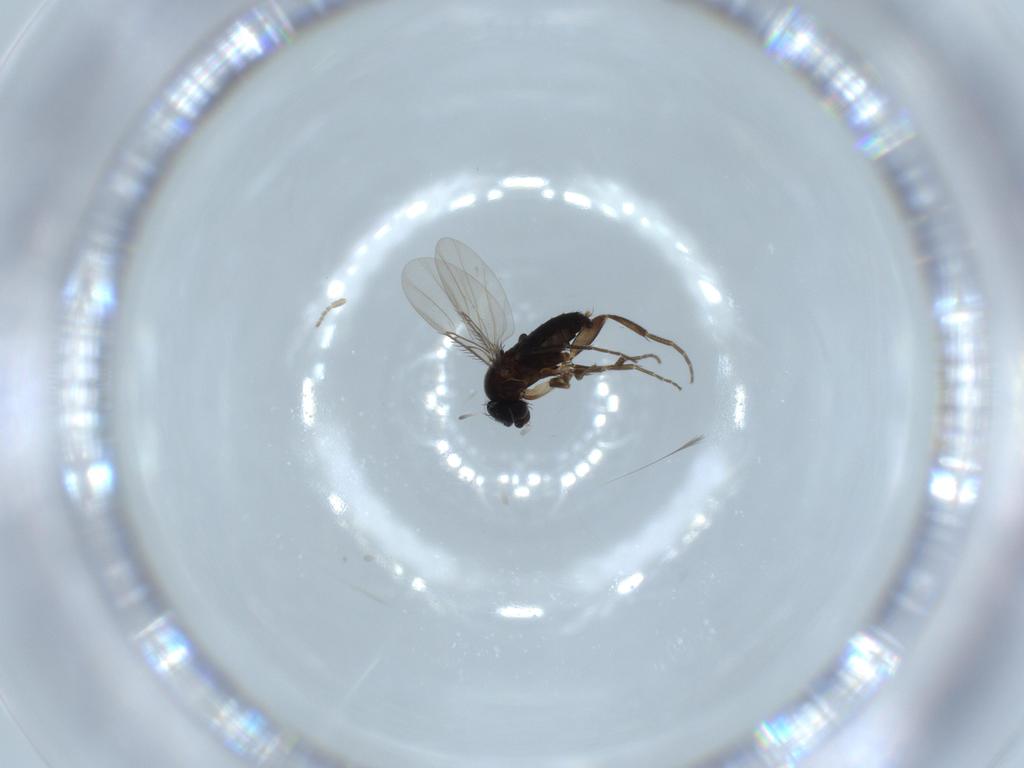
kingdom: Animalia
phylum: Arthropoda
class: Insecta
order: Diptera
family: Phoridae
